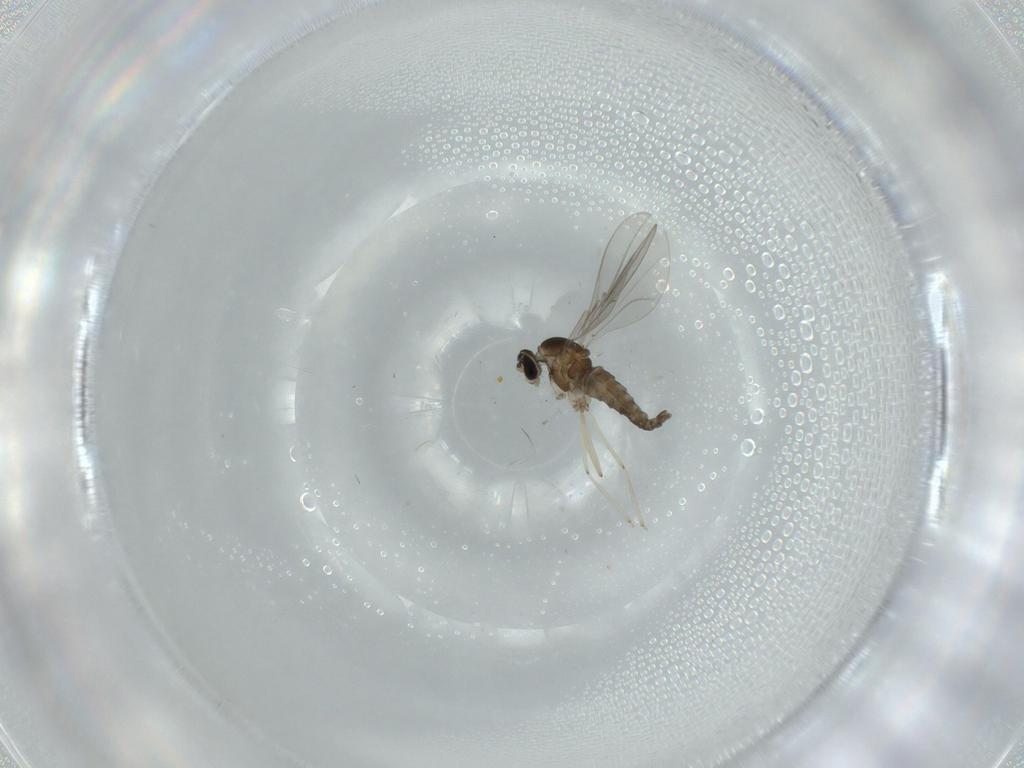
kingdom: Animalia
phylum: Arthropoda
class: Insecta
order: Diptera
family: Cecidomyiidae
